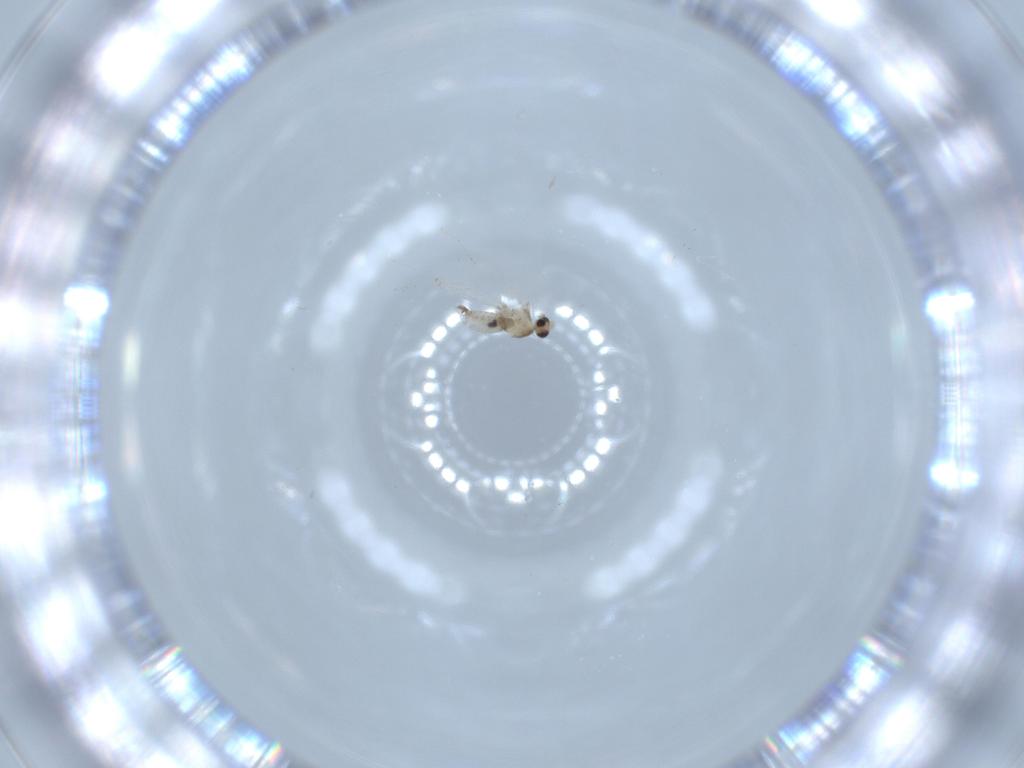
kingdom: Animalia
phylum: Arthropoda
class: Insecta
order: Diptera
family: Cecidomyiidae
